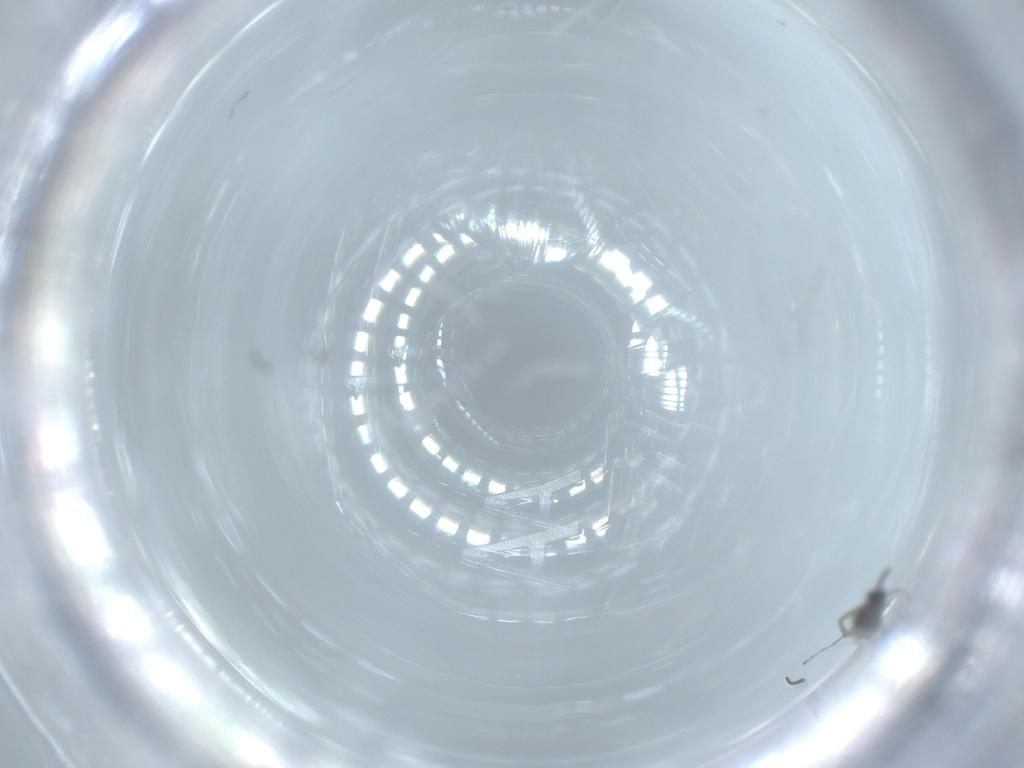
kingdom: Animalia
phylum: Arthropoda
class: Insecta
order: Diptera
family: Cecidomyiidae
